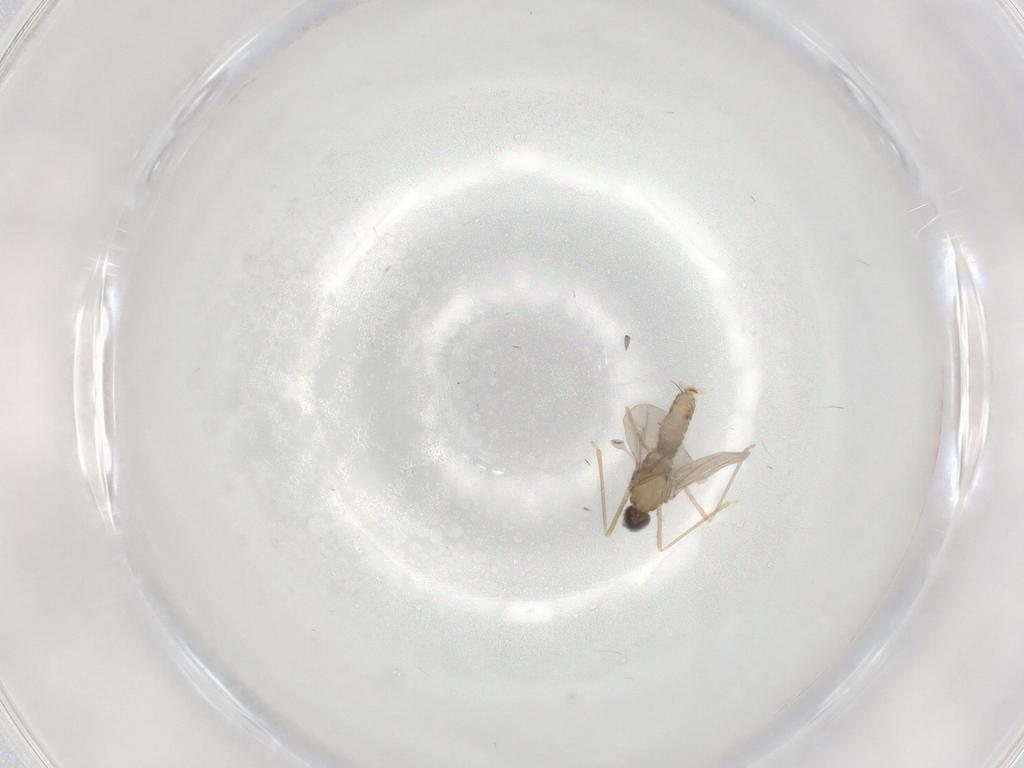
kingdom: Animalia
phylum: Arthropoda
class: Insecta
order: Diptera
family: Cecidomyiidae
